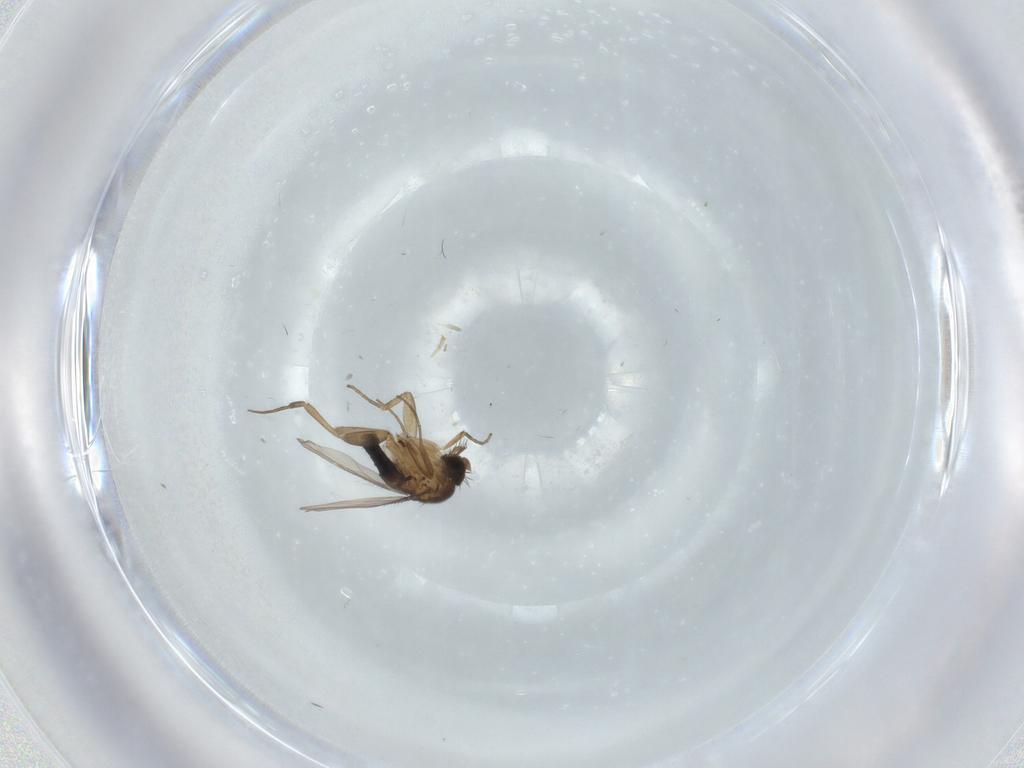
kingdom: Animalia
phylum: Arthropoda
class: Insecta
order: Diptera
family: Cecidomyiidae
